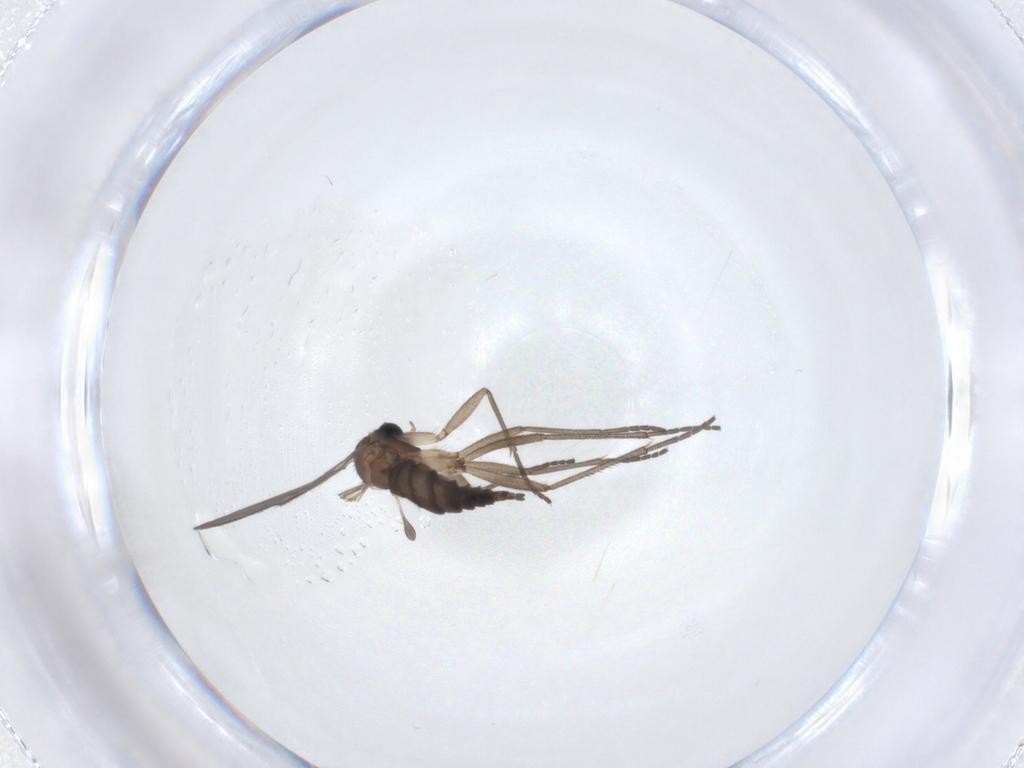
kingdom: Animalia
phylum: Arthropoda
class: Insecta
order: Diptera
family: Sciaridae
